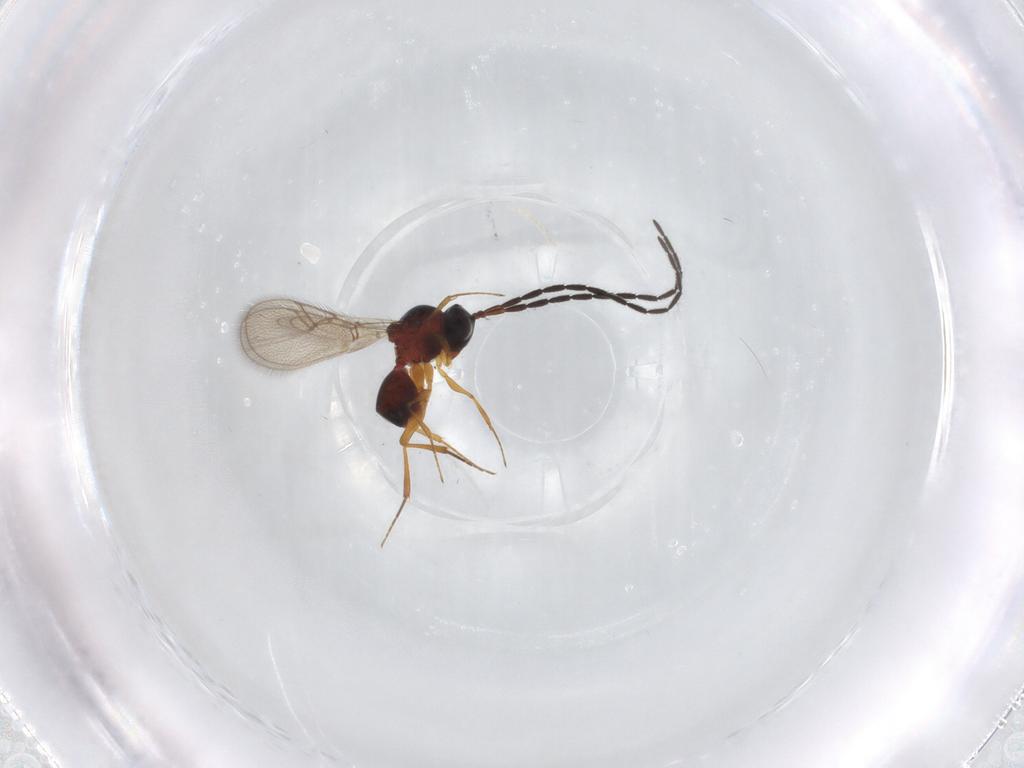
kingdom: Animalia
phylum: Arthropoda
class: Insecta
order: Hymenoptera
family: Figitidae
